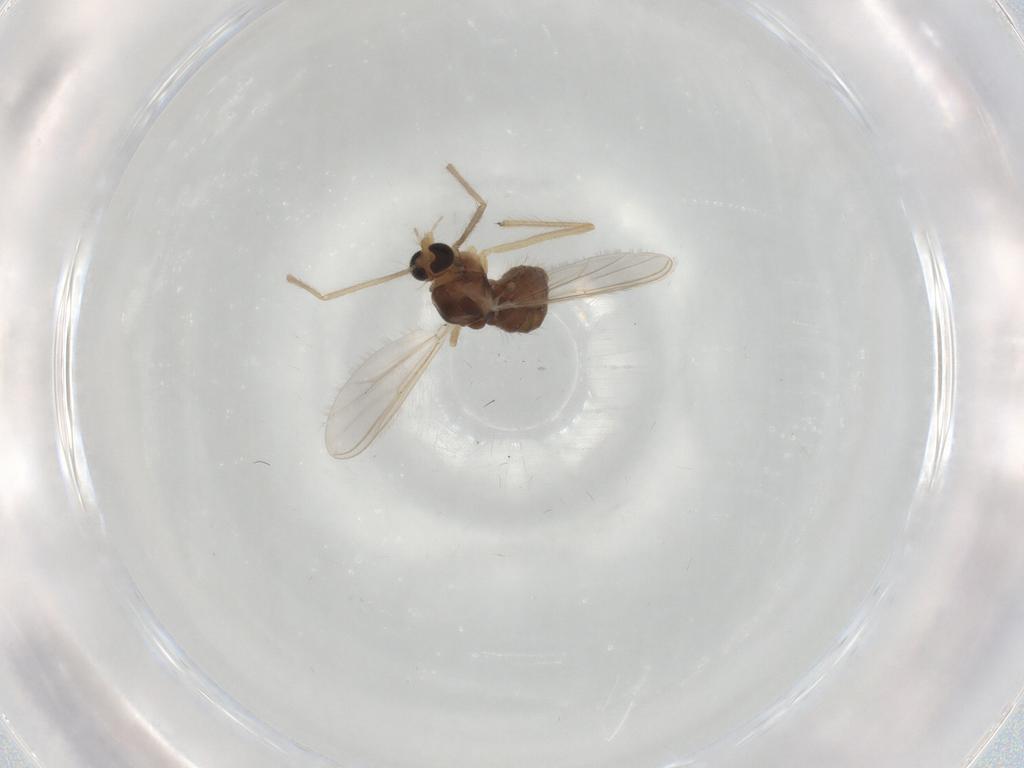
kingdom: Animalia
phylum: Arthropoda
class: Insecta
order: Diptera
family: Chironomidae
